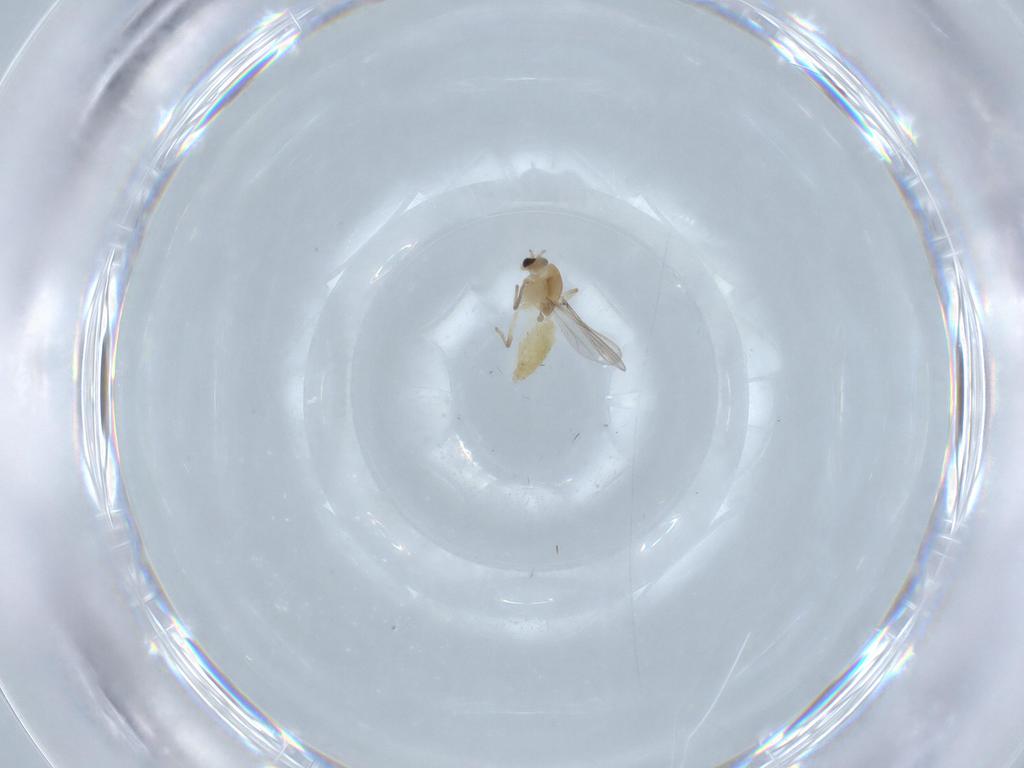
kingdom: Animalia
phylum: Arthropoda
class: Insecta
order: Diptera
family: Chironomidae
